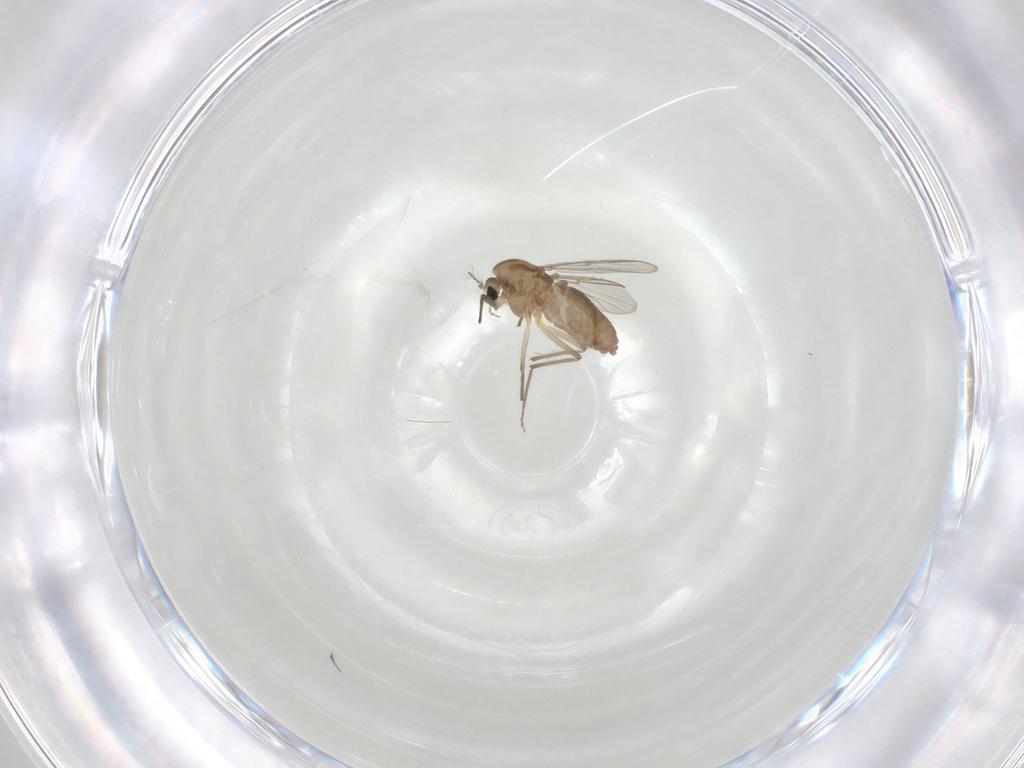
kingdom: Animalia
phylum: Arthropoda
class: Insecta
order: Diptera
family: Chironomidae
